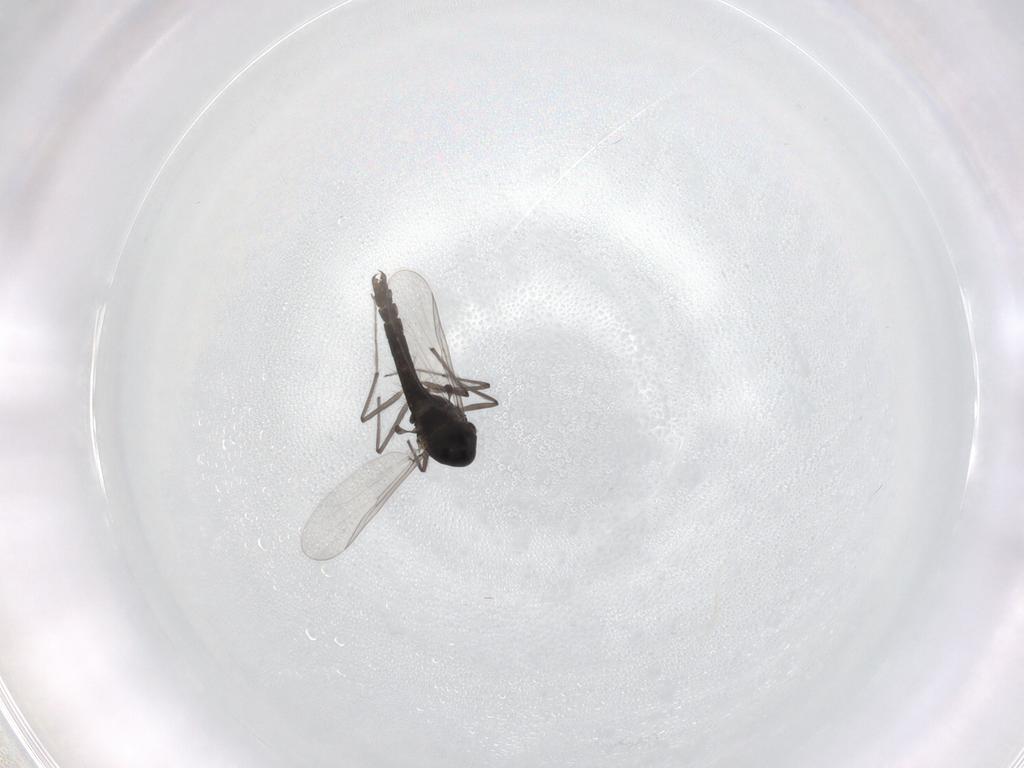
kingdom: Animalia
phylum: Arthropoda
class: Insecta
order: Diptera
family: Chironomidae
